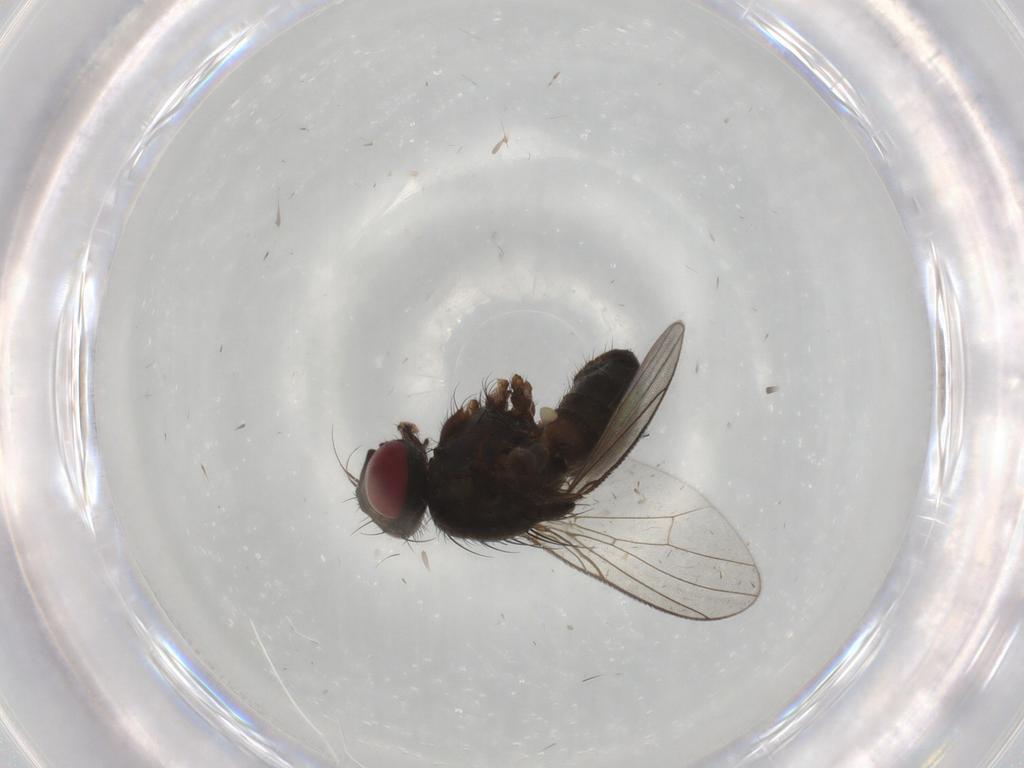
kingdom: Animalia
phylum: Arthropoda
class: Insecta
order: Diptera
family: Muscidae
